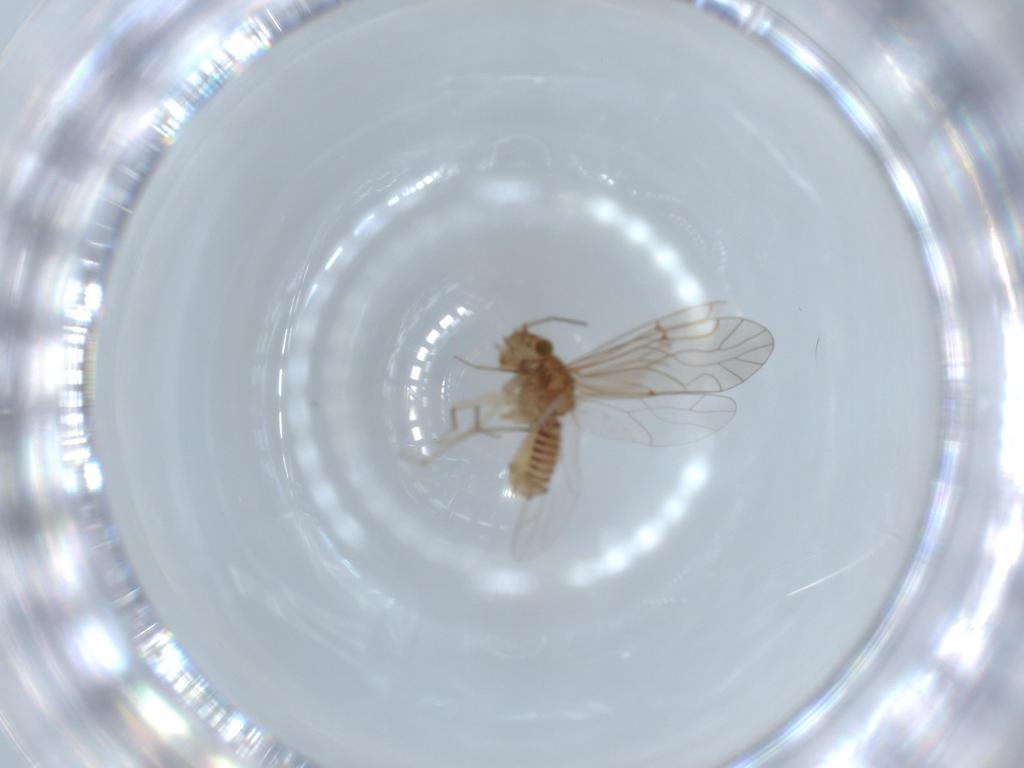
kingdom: Animalia
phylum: Arthropoda
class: Insecta
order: Psocodea
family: Lachesillidae
